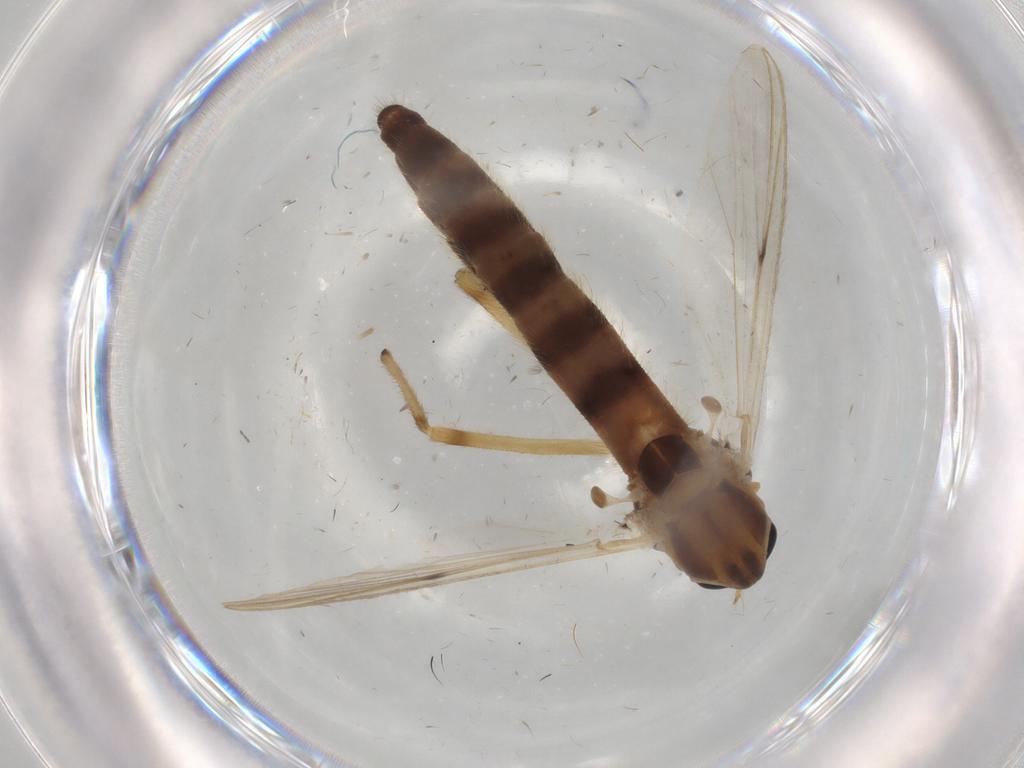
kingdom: Animalia
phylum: Arthropoda
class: Insecta
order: Diptera
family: Chironomidae
